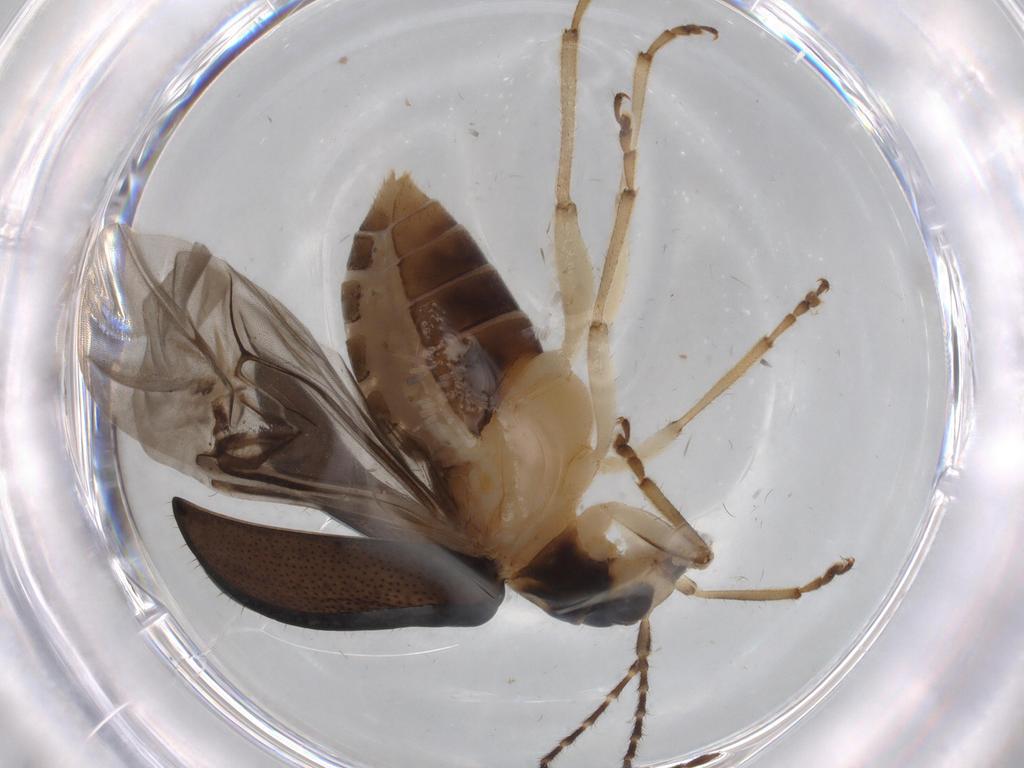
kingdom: Animalia
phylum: Arthropoda
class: Insecta
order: Coleoptera
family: Chrysomelidae
